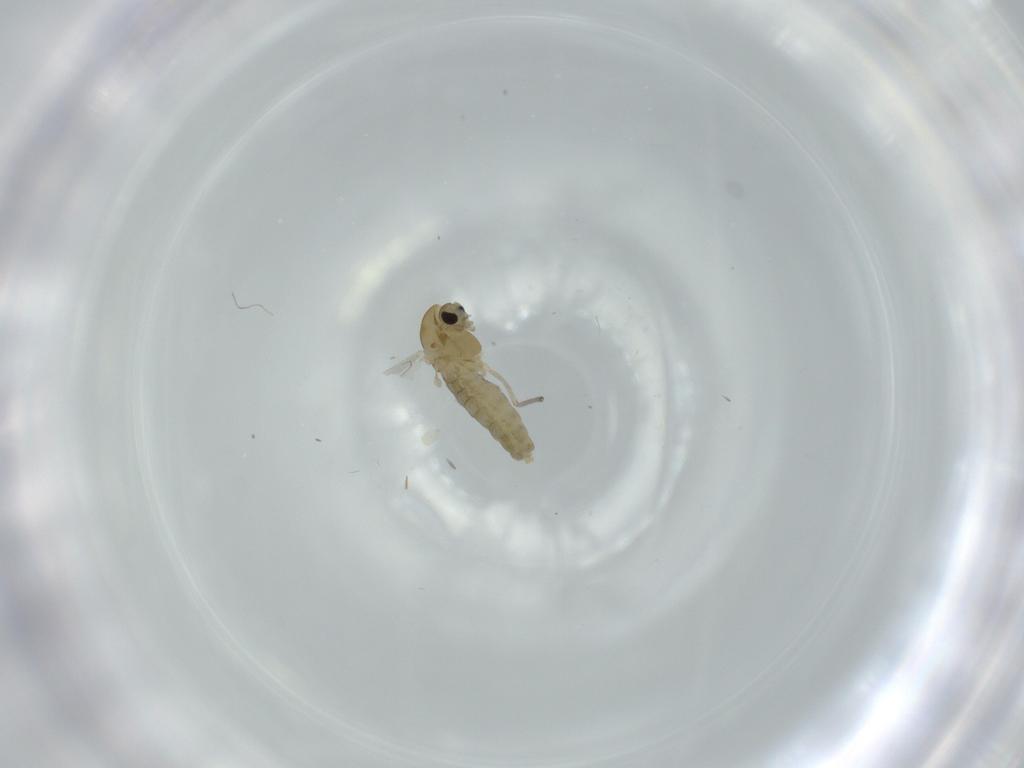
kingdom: Animalia
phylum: Arthropoda
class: Insecta
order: Diptera
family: Chironomidae
